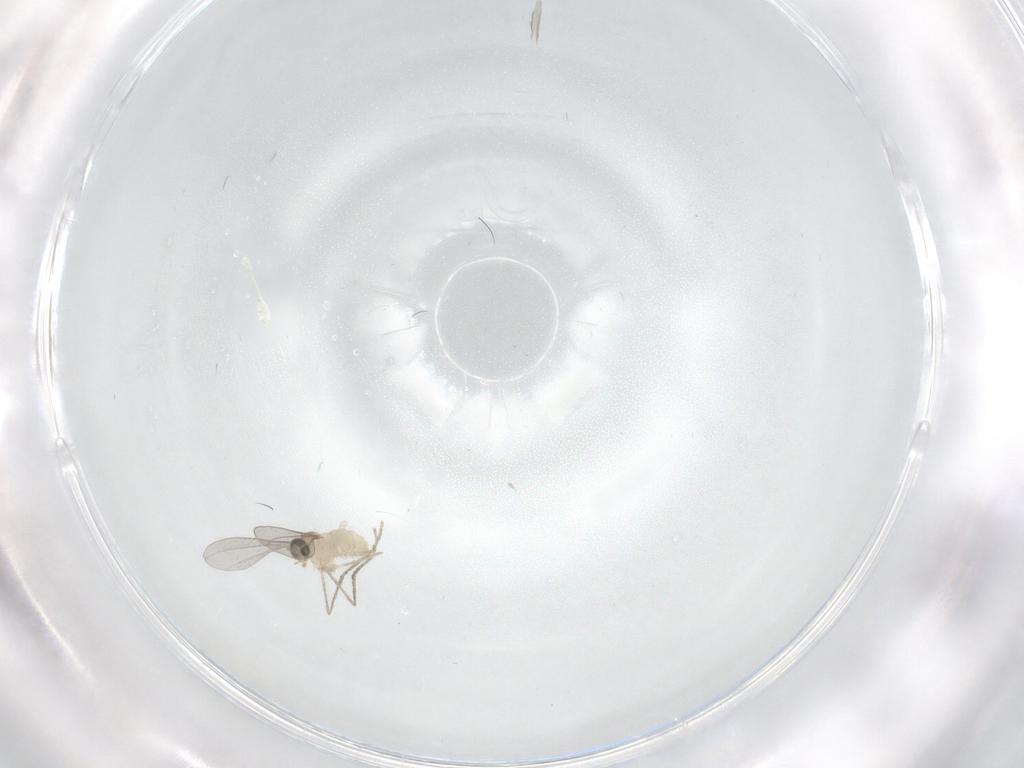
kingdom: Animalia
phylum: Arthropoda
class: Insecta
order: Diptera
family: Cecidomyiidae
